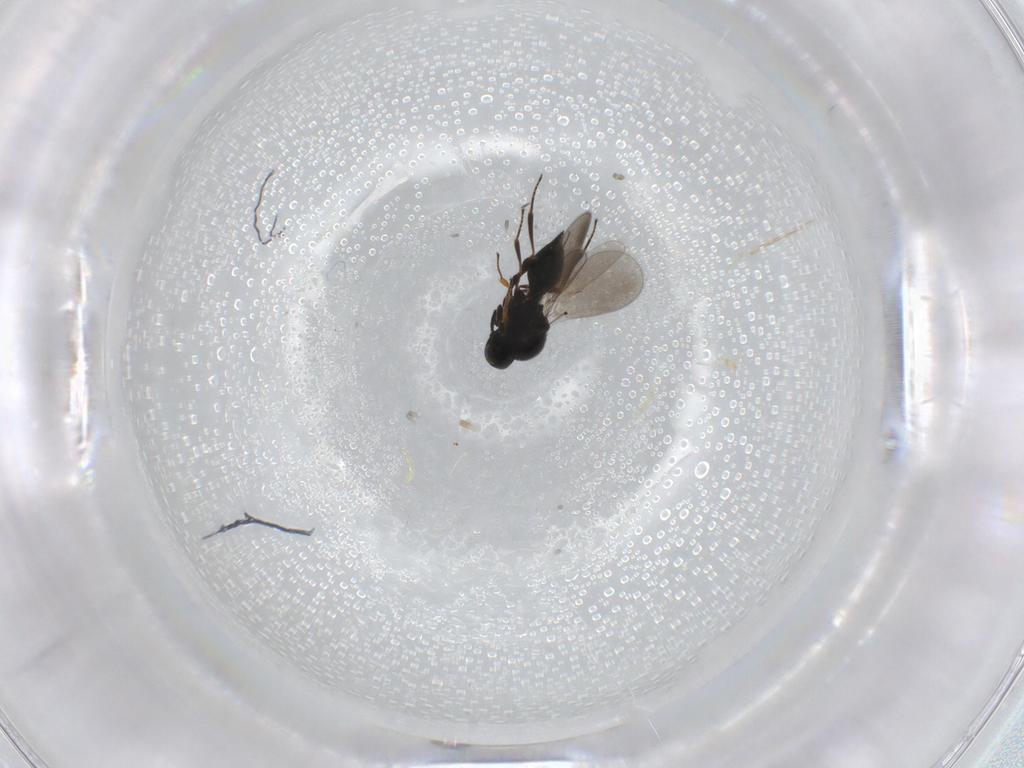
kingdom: Animalia
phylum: Arthropoda
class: Insecta
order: Hymenoptera
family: Platygastridae
